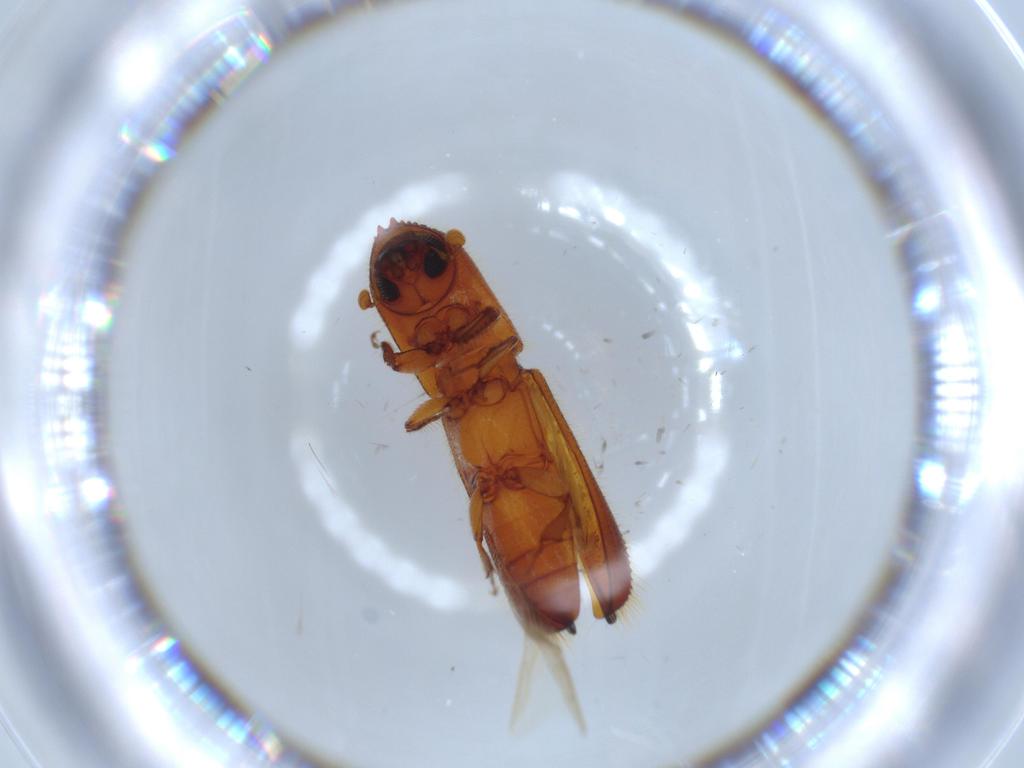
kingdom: Animalia
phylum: Arthropoda
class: Insecta
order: Coleoptera
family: Curculionidae
